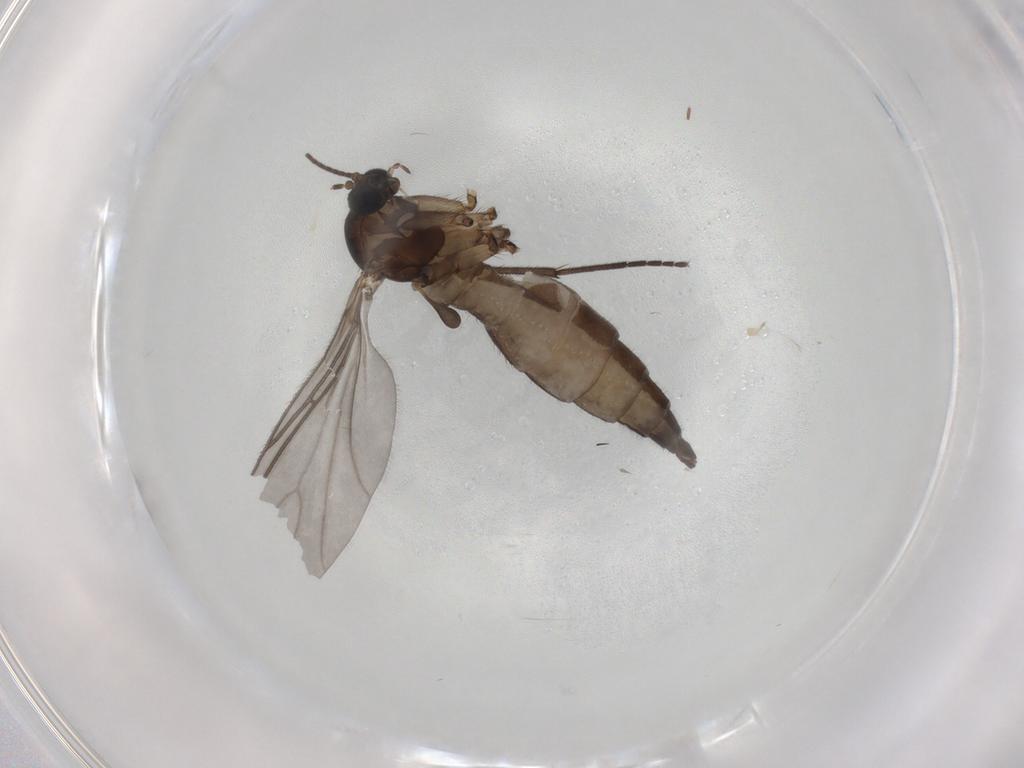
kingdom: Animalia
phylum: Arthropoda
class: Insecta
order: Diptera
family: Sciaridae
